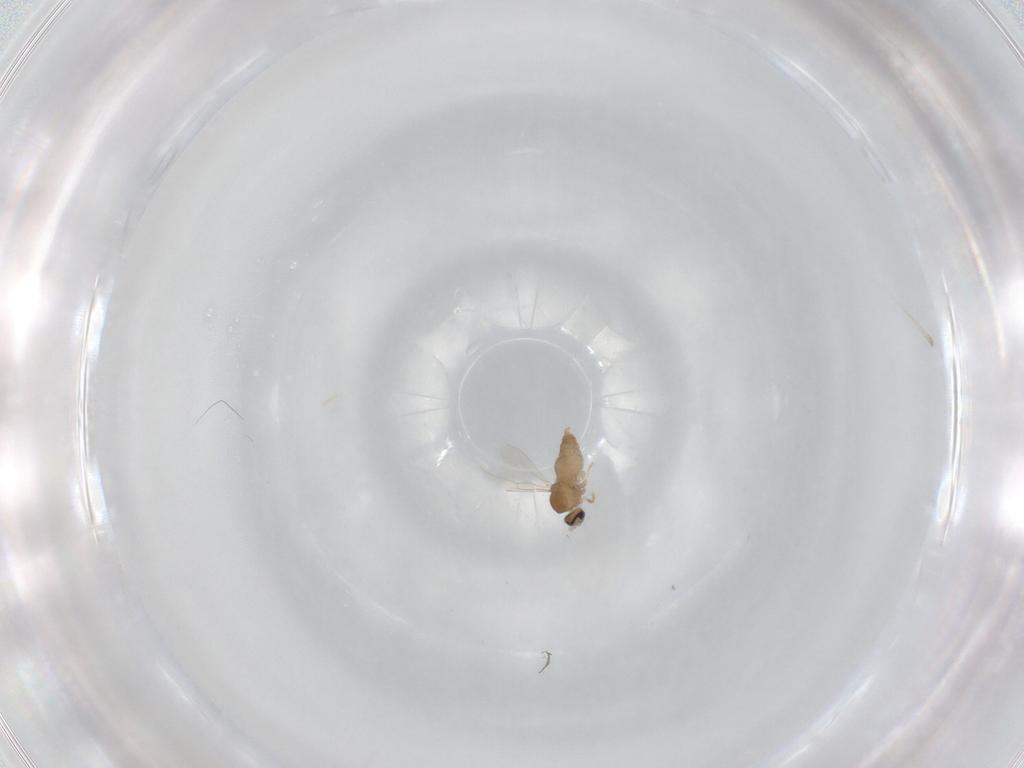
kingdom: Animalia
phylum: Arthropoda
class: Insecta
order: Diptera
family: Cecidomyiidae
